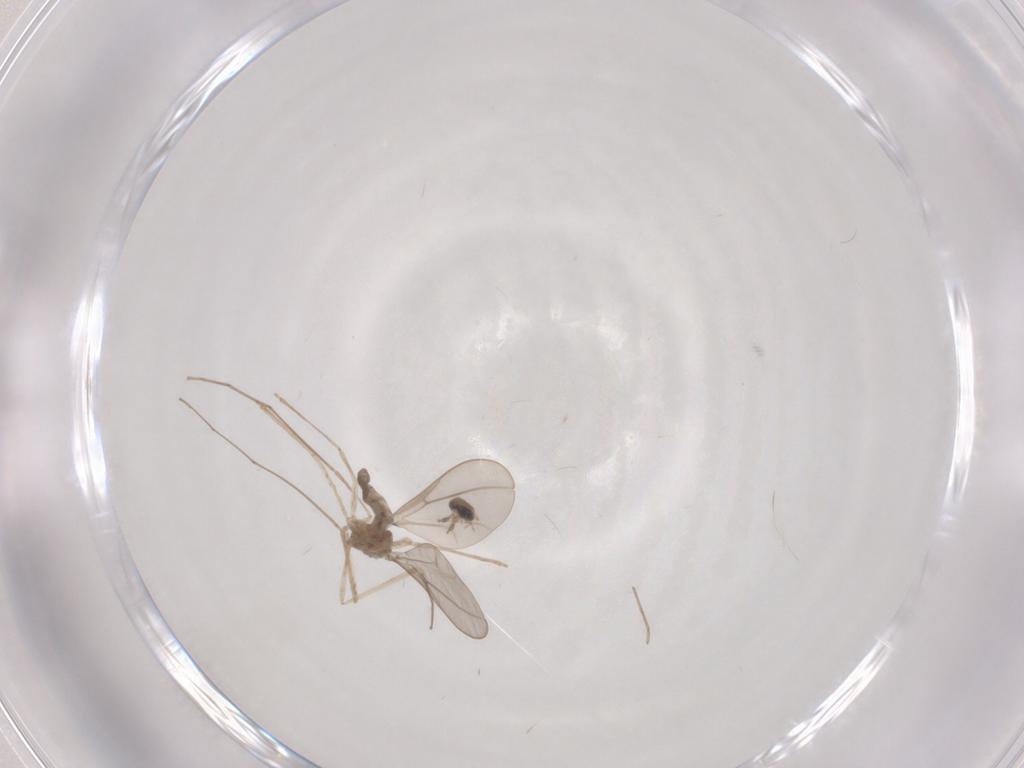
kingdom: Animalia
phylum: Arthropoda
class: Insecta
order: Diptera
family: Cecidomyiidae
